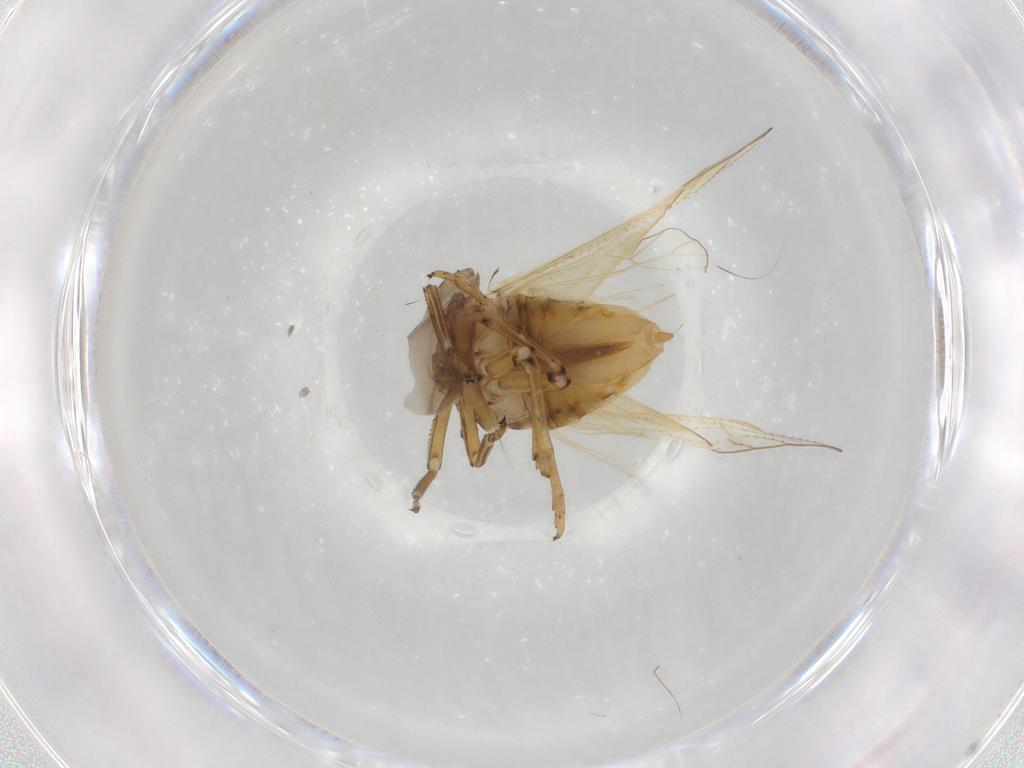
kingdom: Animalia
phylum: Arthropoda
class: Insecta
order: Hemiptera
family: Delphacidae
